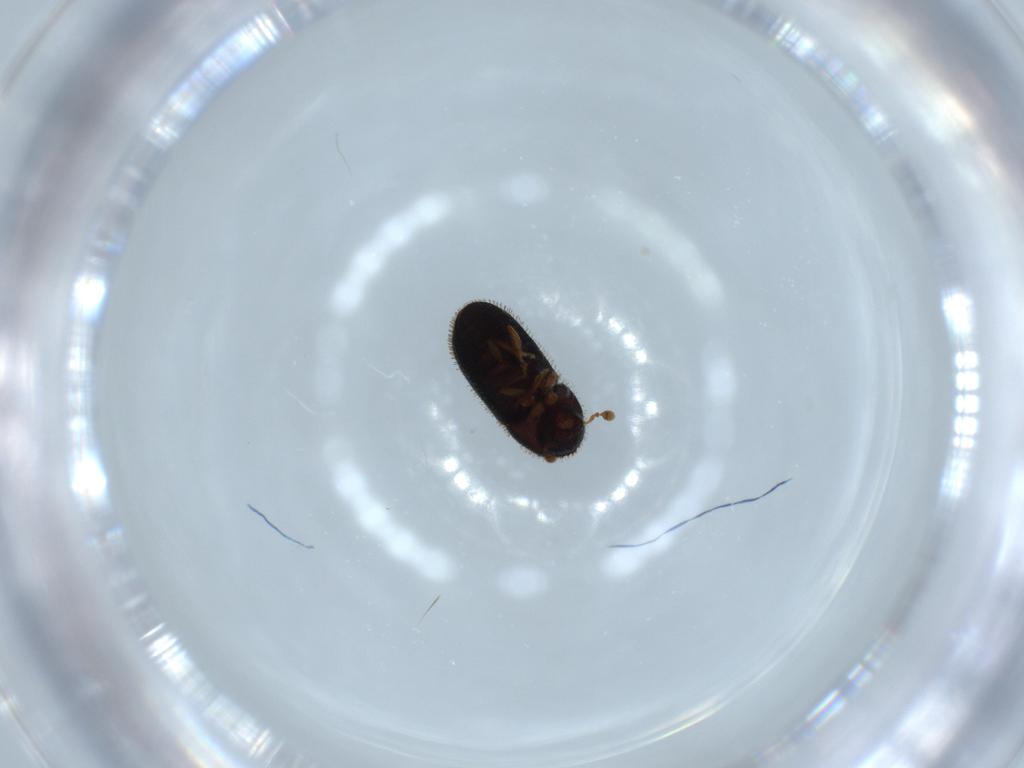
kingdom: Animalia
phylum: Arthropoda
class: Insecta
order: Coleoptera
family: Curculionidae
